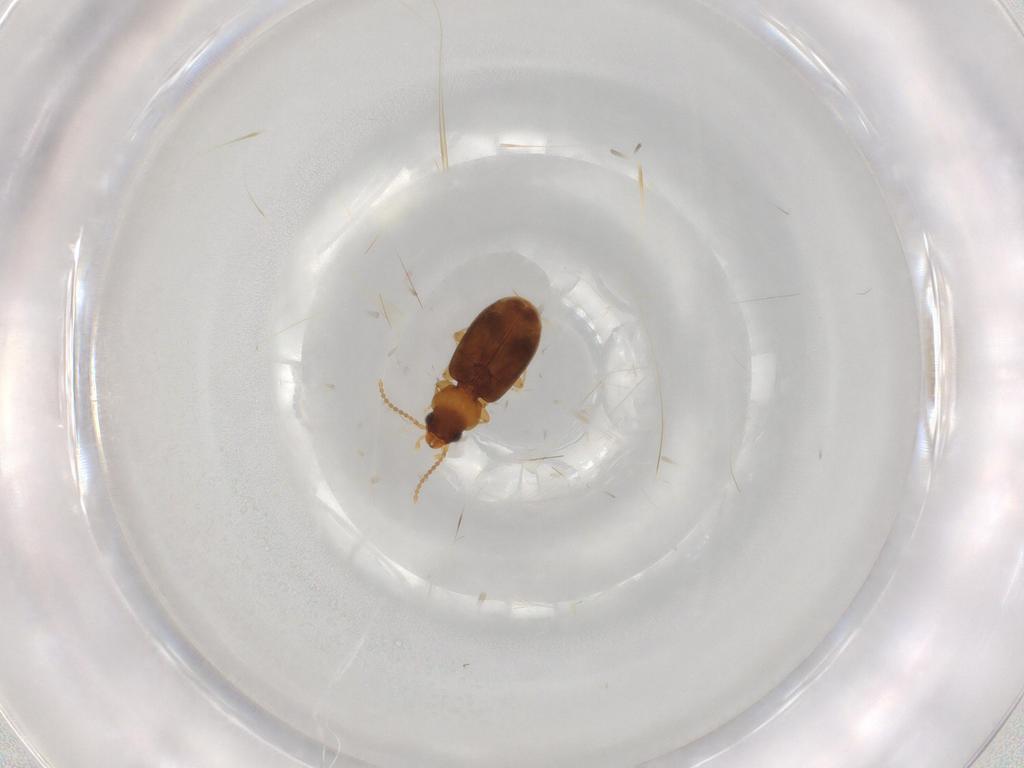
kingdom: Animalia
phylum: Arthropoda
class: Insecta
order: Coleoptera
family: Carabidae
